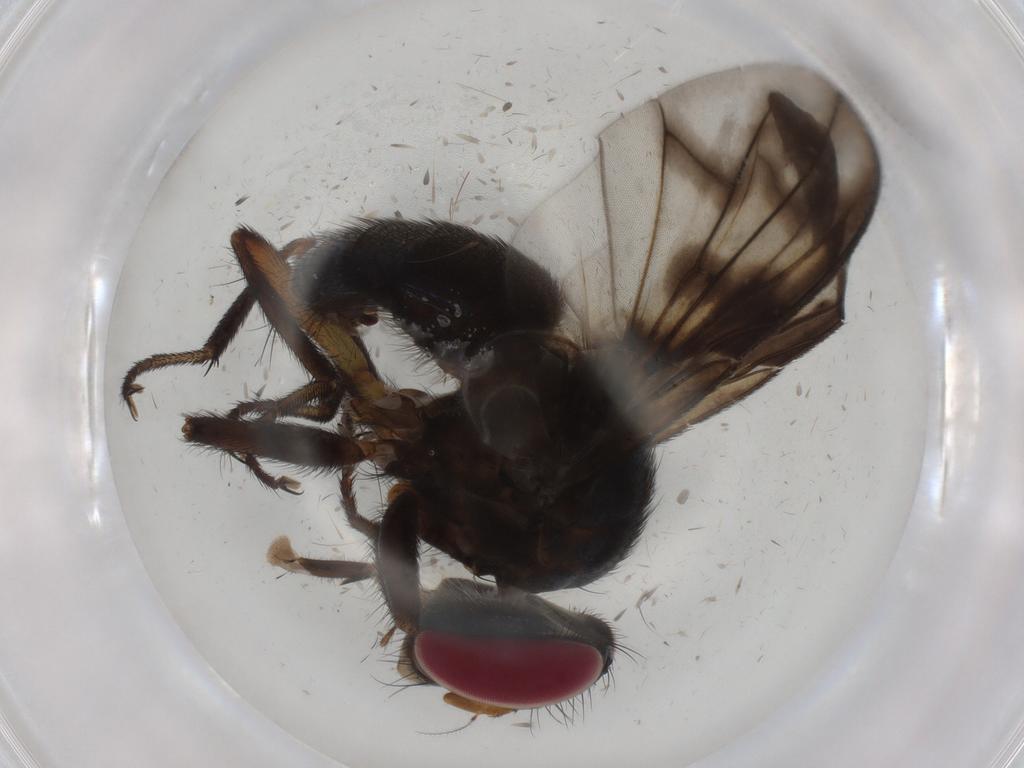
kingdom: Animalia
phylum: Arthropoda
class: Insecta
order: Diptera
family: Psychodidae
